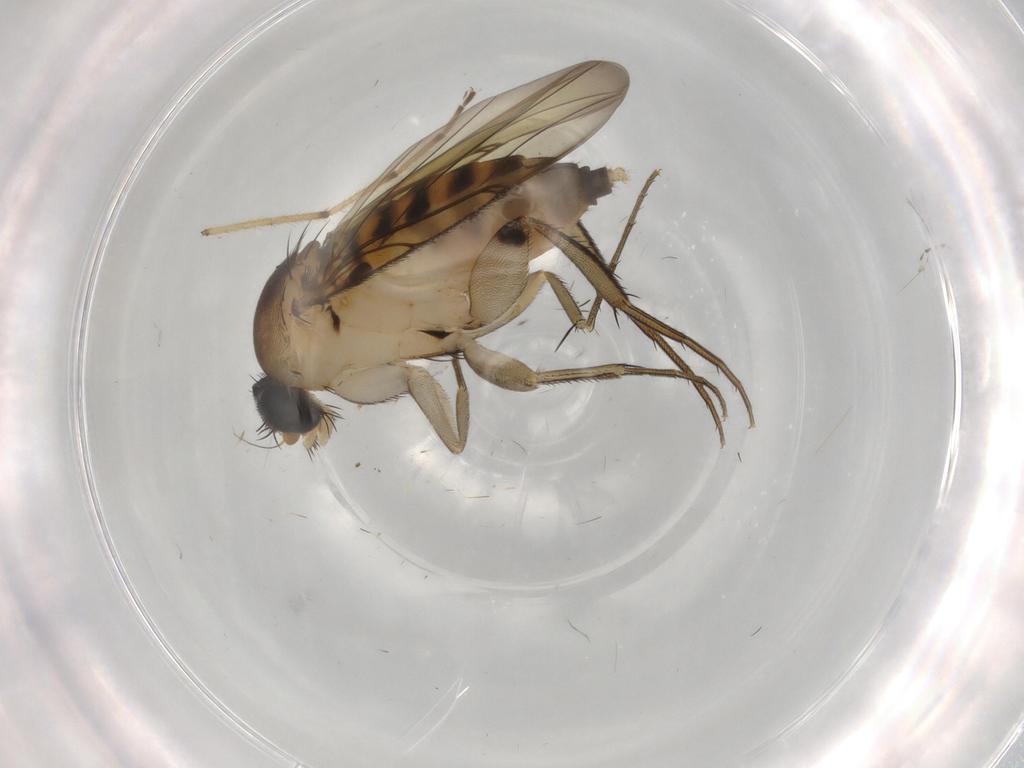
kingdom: Animalia
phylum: Arthropoda
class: Insecta
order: Diptera
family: Phoridae
